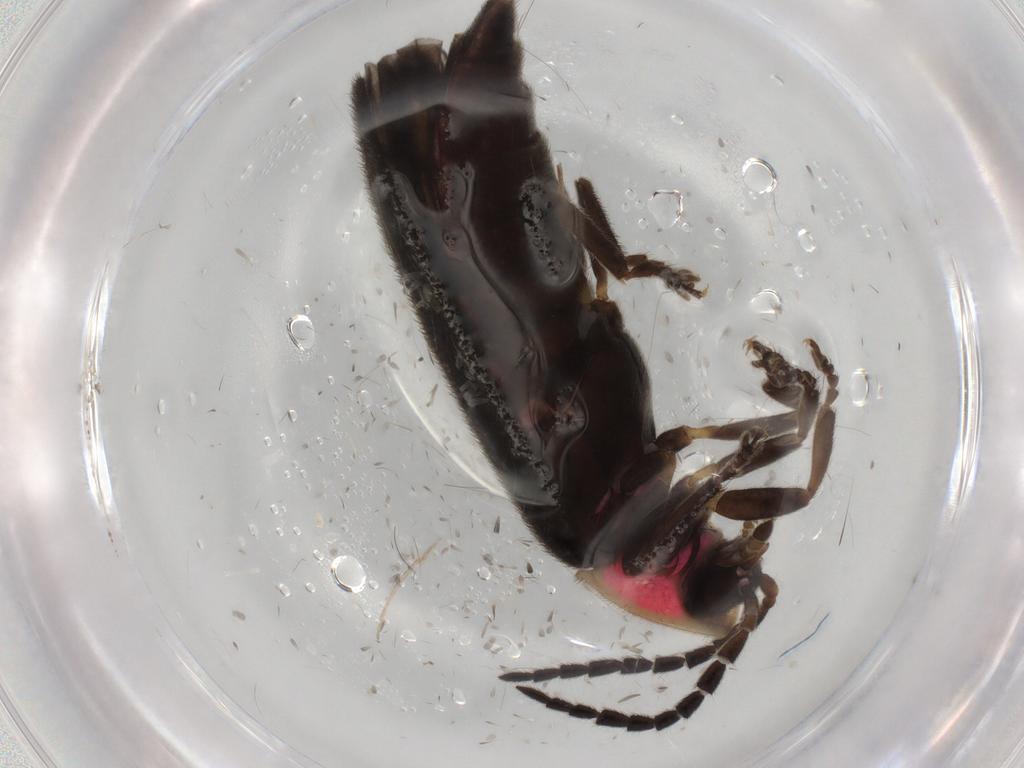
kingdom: Animalia
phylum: Arthropoda
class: Insecta
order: Coleoptera
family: Lampyridae
